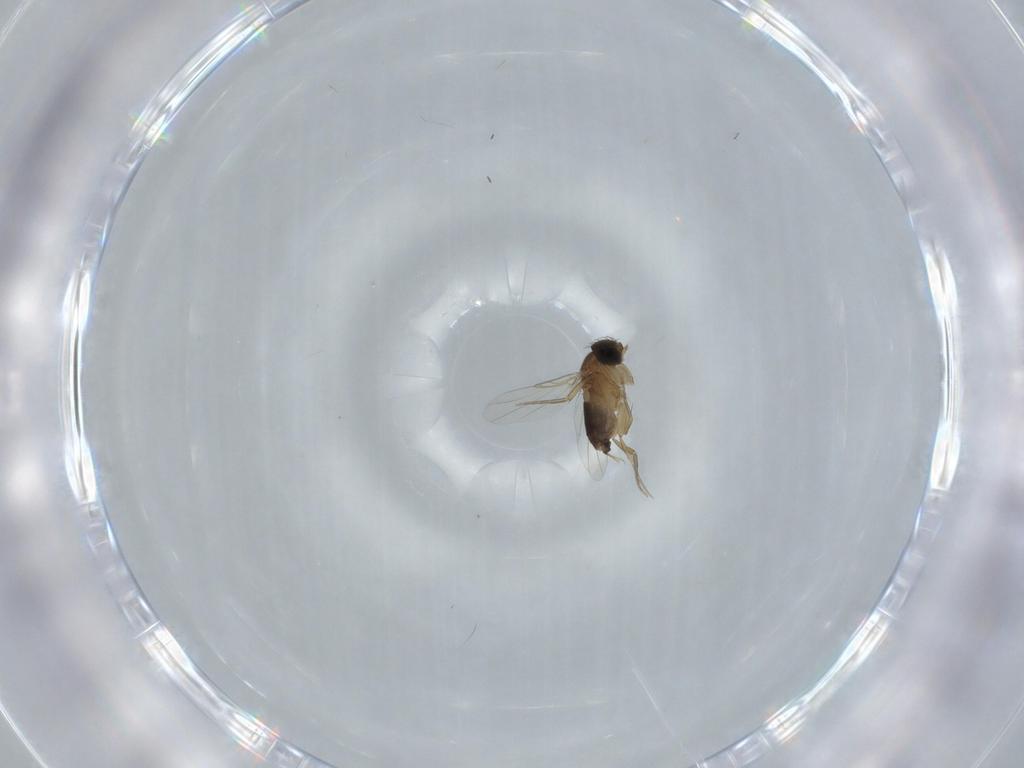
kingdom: Animalia
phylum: Arthropoda
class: Insecta
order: Diptera
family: Phoridae
